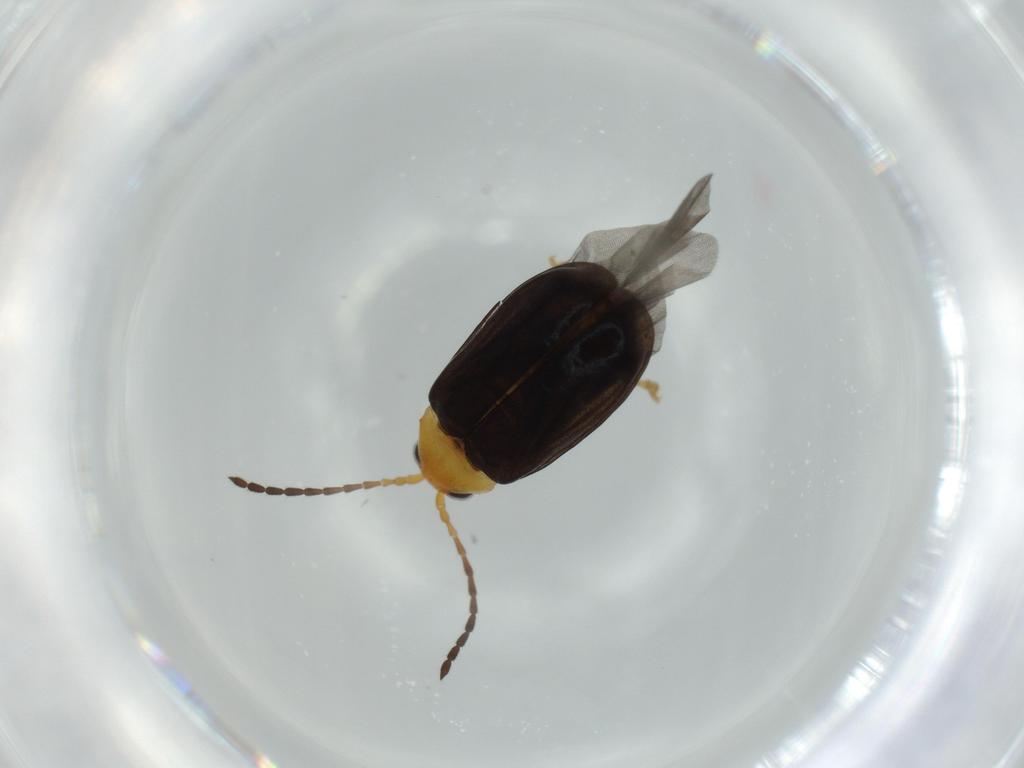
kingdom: Animalia
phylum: Arthropoda
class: Insecta
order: Coleoptera
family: Chrysomelidae
